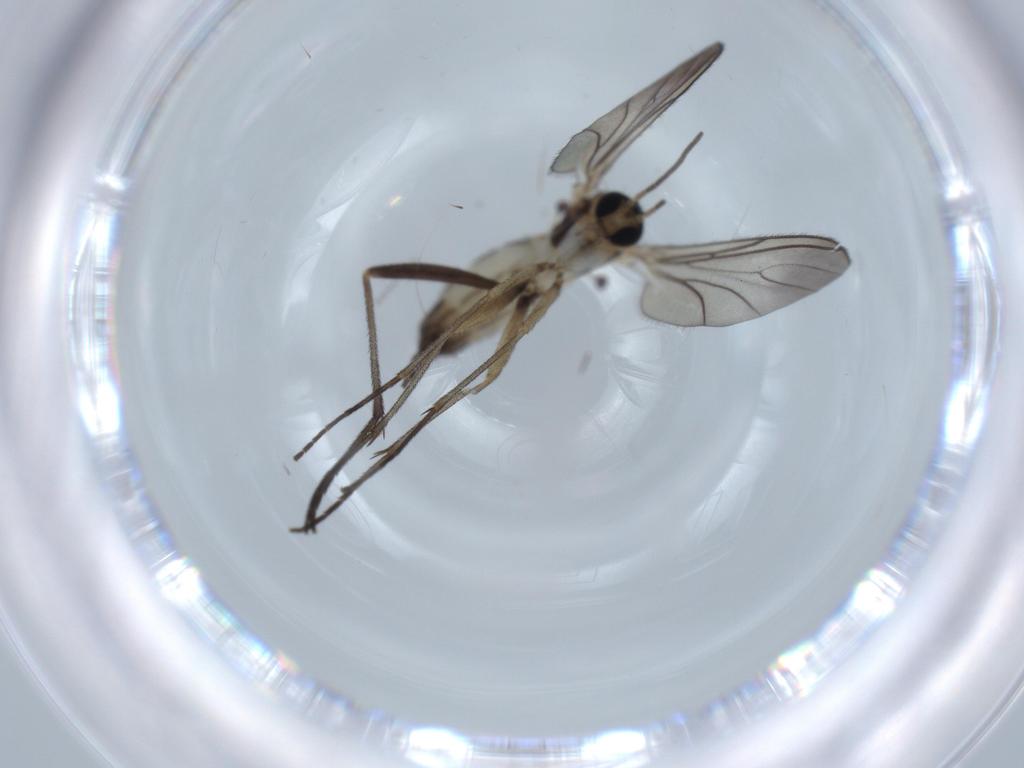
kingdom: Animalia
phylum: Arthropoda
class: Insecta
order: Diptera
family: Sciaridae
